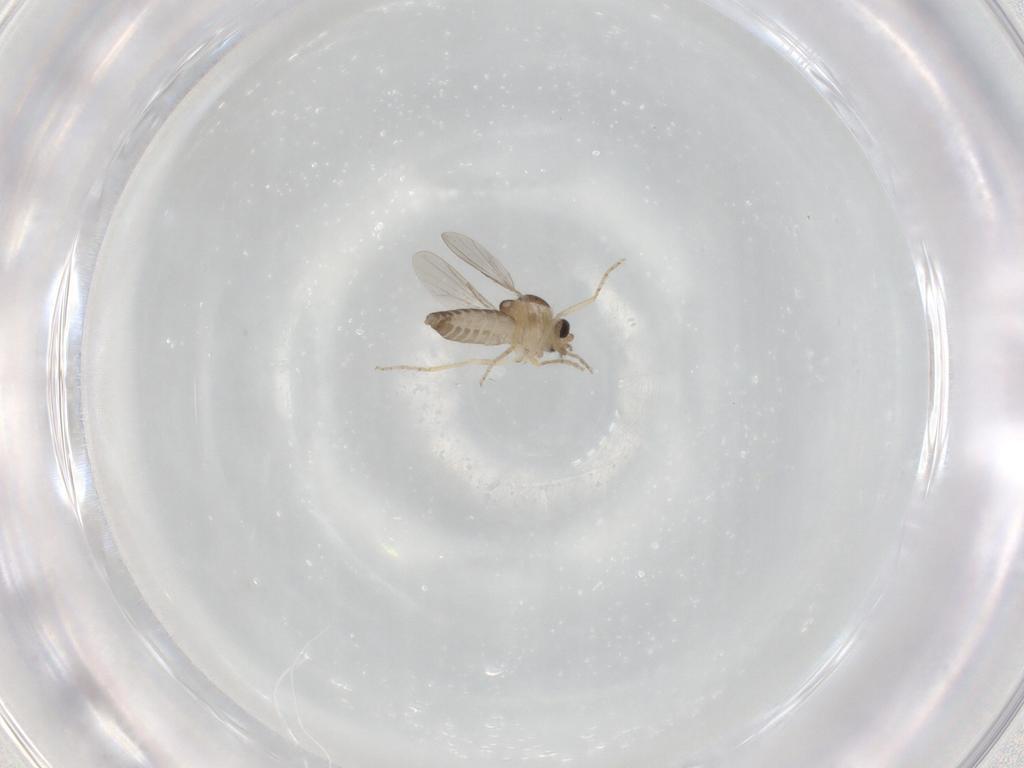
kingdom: Animalia
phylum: Arthropoda
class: Insecta
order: Diptera
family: Ceratopogonidae
